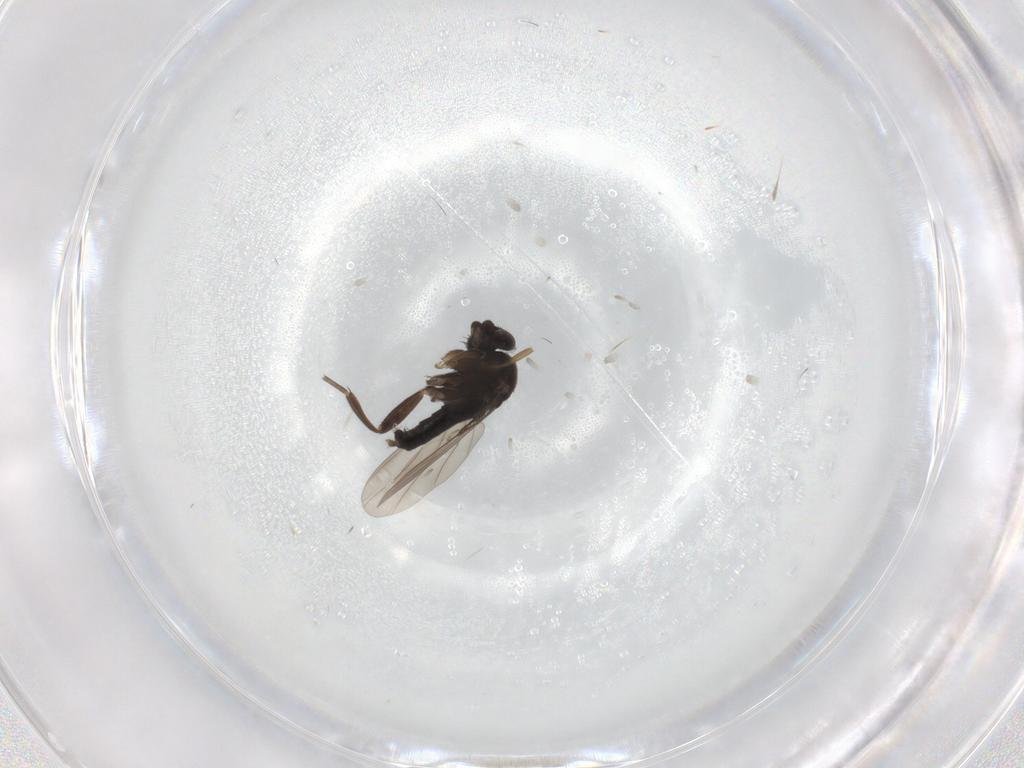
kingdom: Animalia
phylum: Arthropoda
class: Insecta
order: Diptera
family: Phoridae
